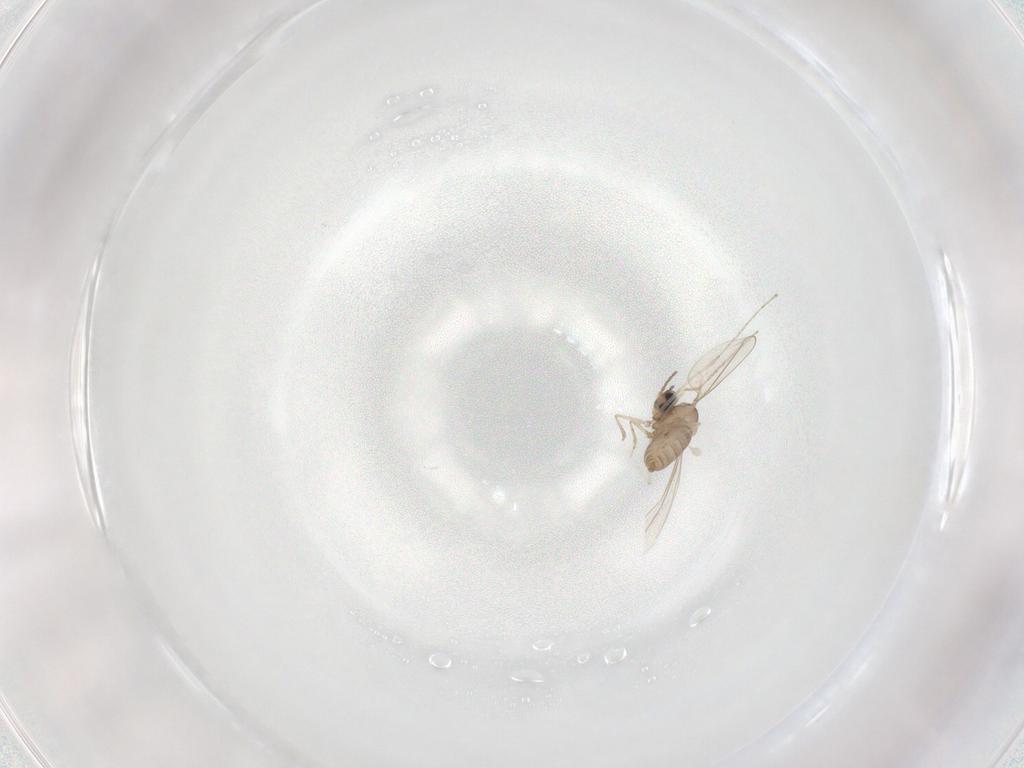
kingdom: Animalia
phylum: Arthropoda
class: Insecta
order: Diptera
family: Cecidomyiidae
